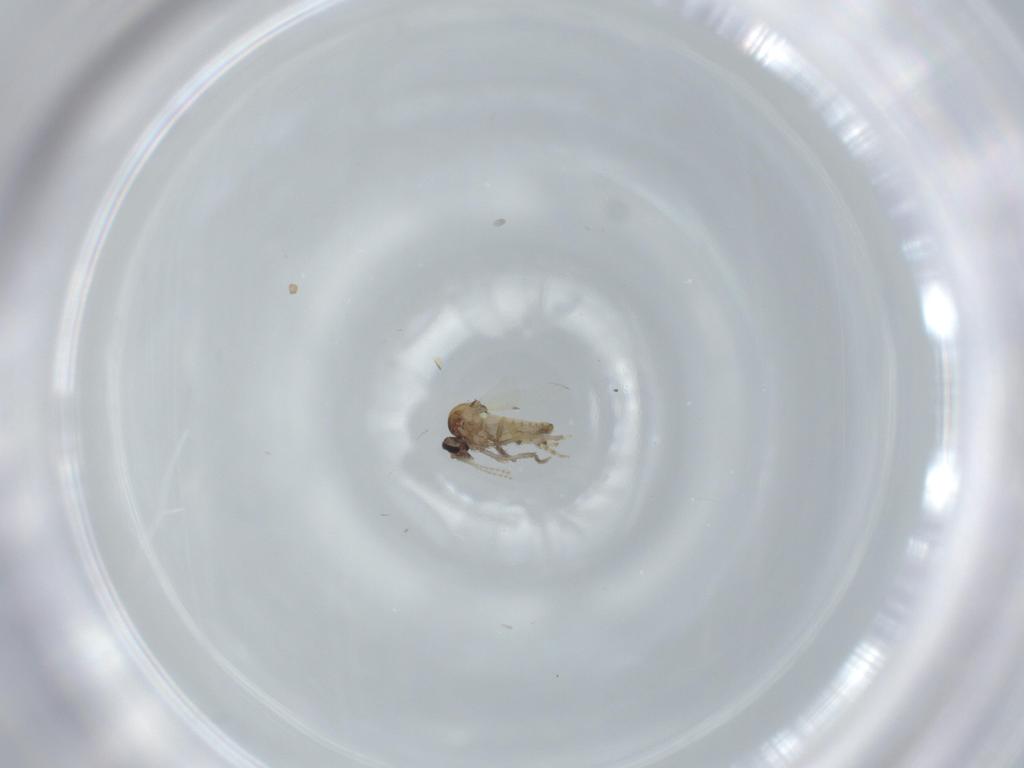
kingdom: Animalia
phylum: Arthropoda
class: Insecta
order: Diptera
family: Ceratopogonidae
